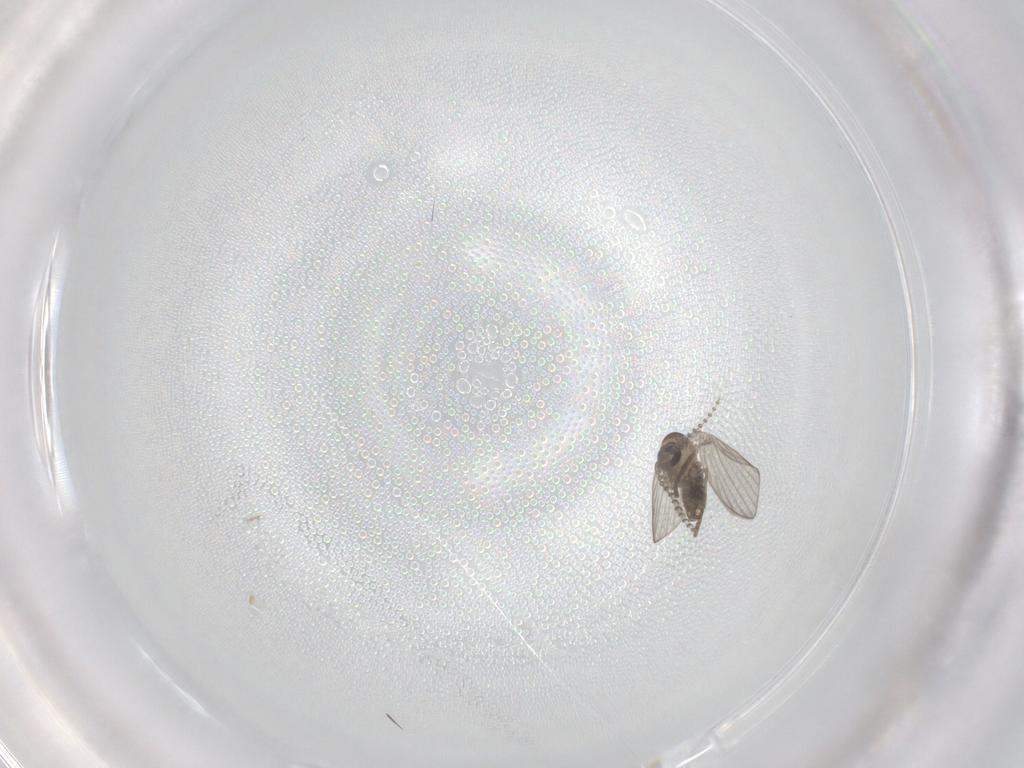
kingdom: Animalia
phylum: Arthropoda
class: Insecta
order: Diptera
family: Psychodidae
